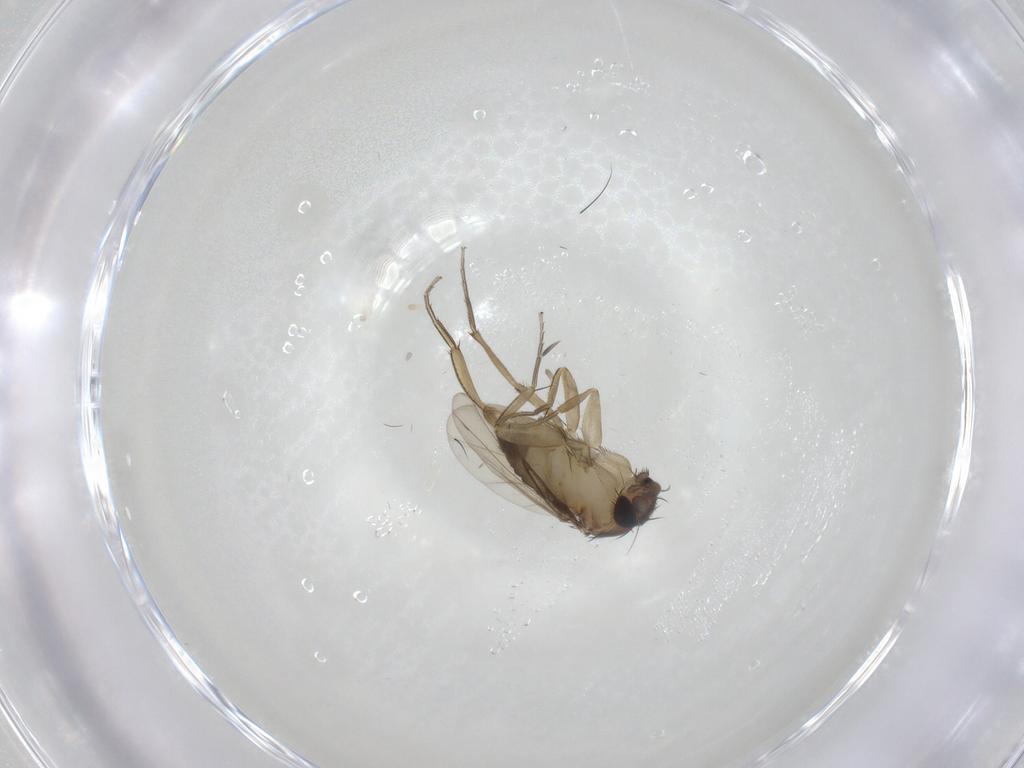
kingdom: Animalia
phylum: Arthropoda
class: Insecta
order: Diptera
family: Phoridae
